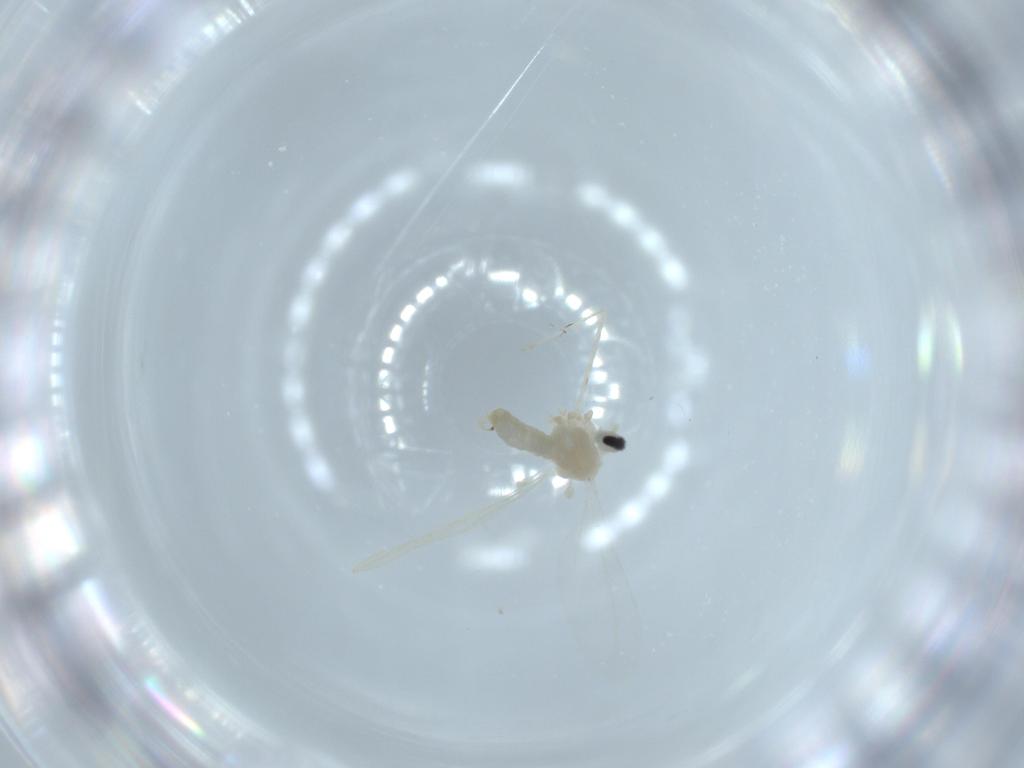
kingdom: Animalia
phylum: Arthropoda
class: Insecta
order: Diptera
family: Cecidomyiidae
